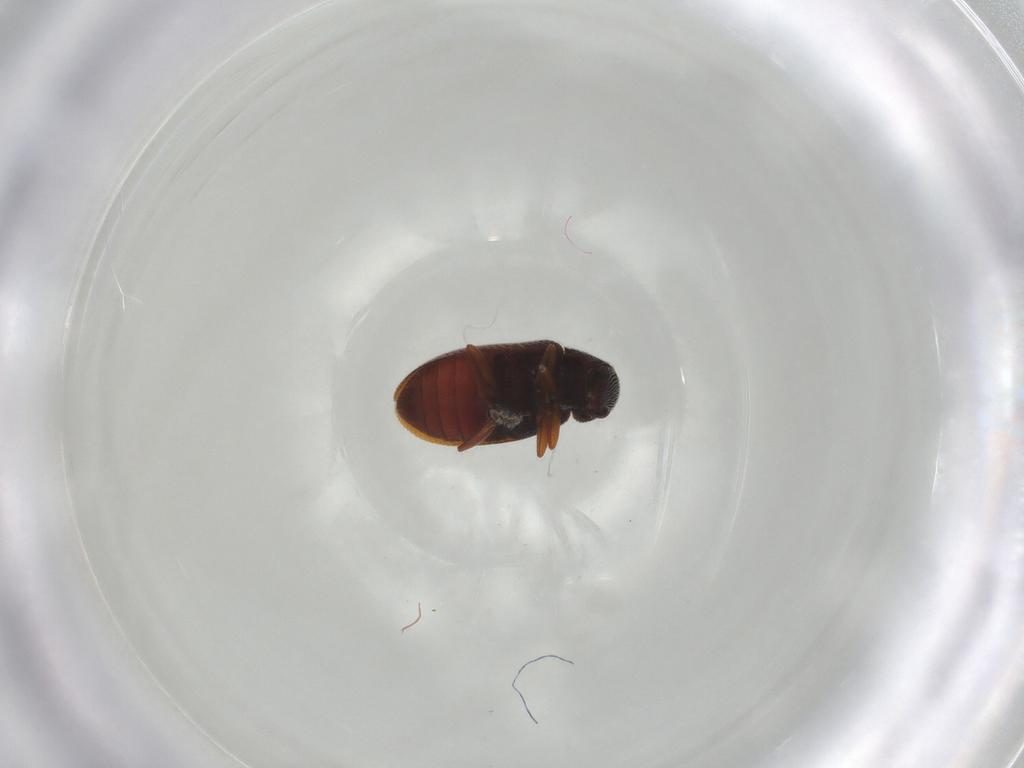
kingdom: Animalia
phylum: Arthropoda
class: Insecta
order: Coleoptera
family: Rhadalidae
